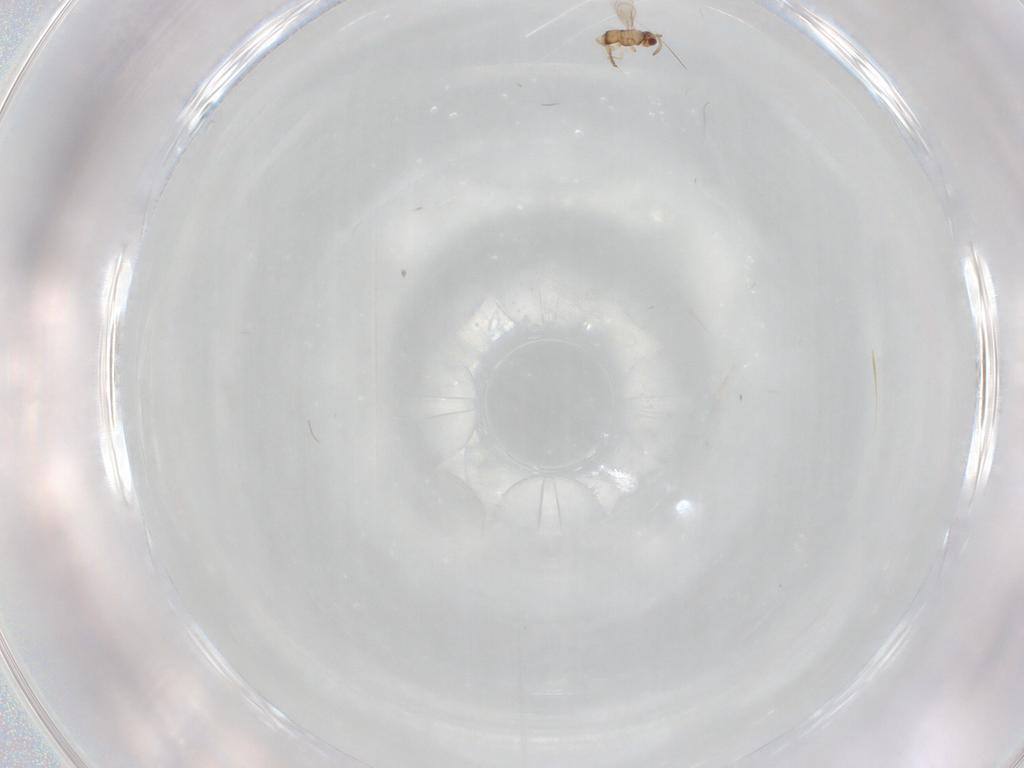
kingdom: Animalia
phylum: Arthropoda
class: Insecta
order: Hymenoptera
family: Aphelinidae
